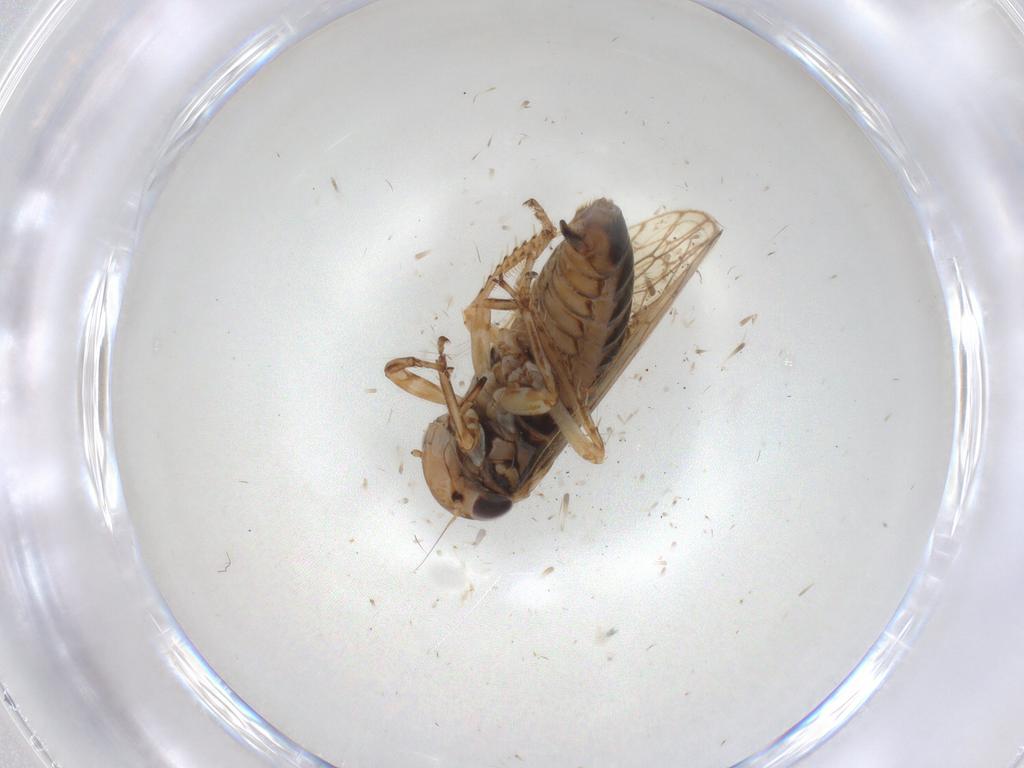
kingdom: Animalia
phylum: Arthropoda
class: Insecta
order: Hemiptera
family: Cicadellidae
